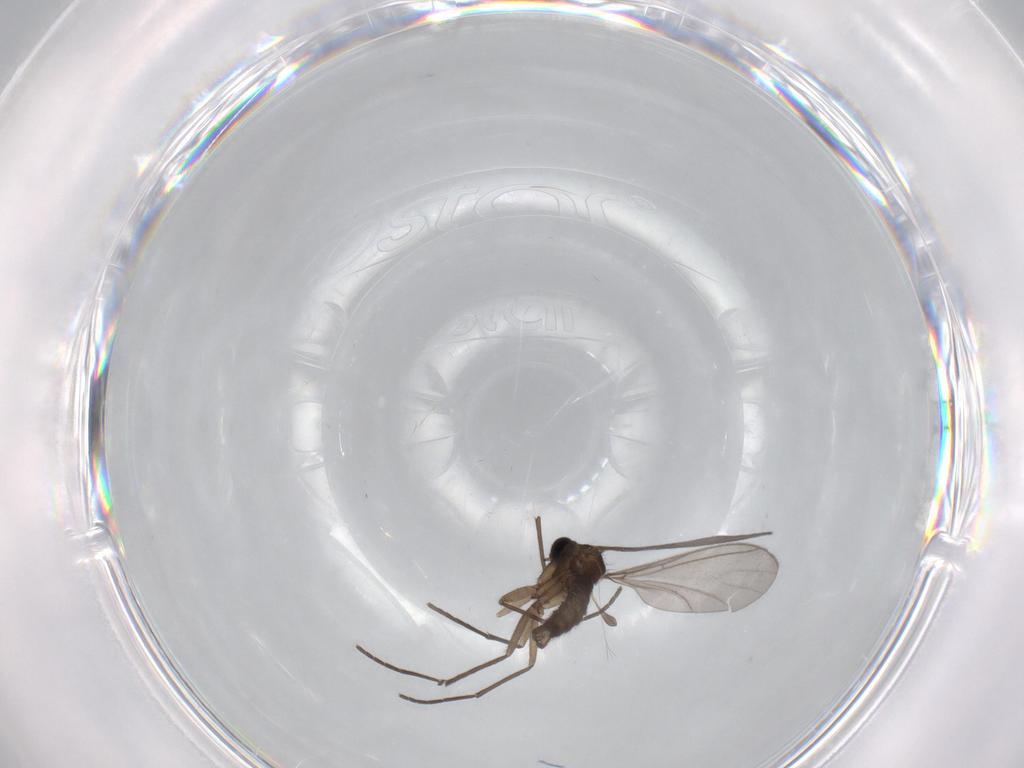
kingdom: Animalia
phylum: Arthropoda
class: Insecta
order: Diptera
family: Sciaridae
